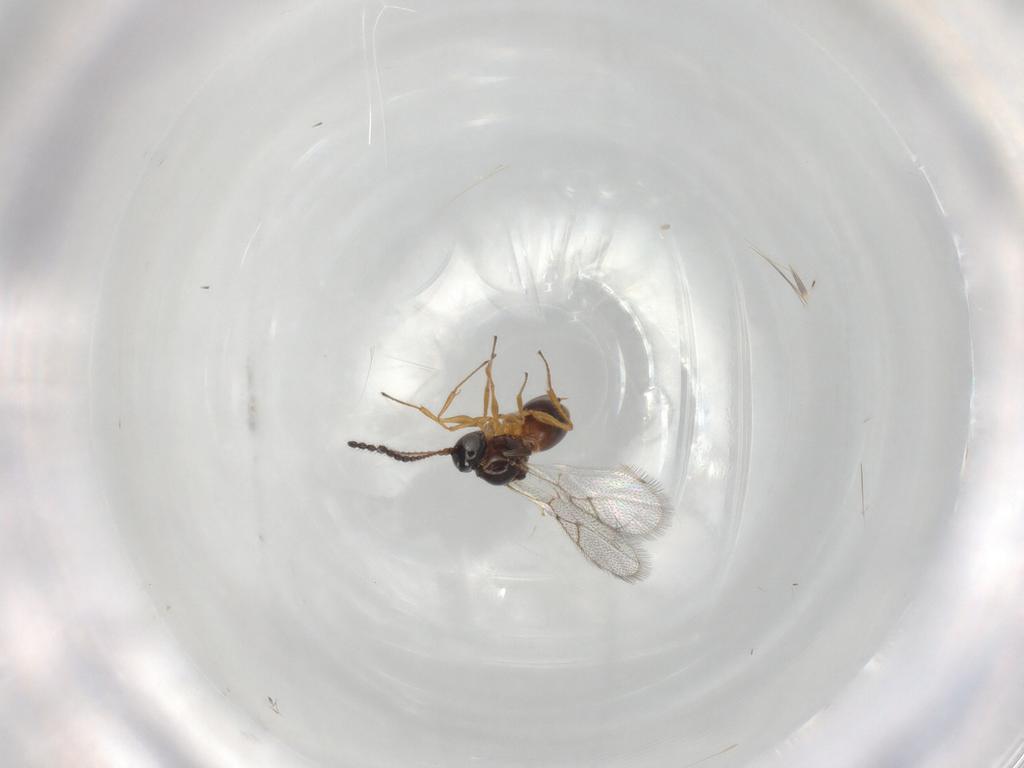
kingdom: Animalia
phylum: Arthropoda
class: Insecta
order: Hymenoptera
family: Figitidae
